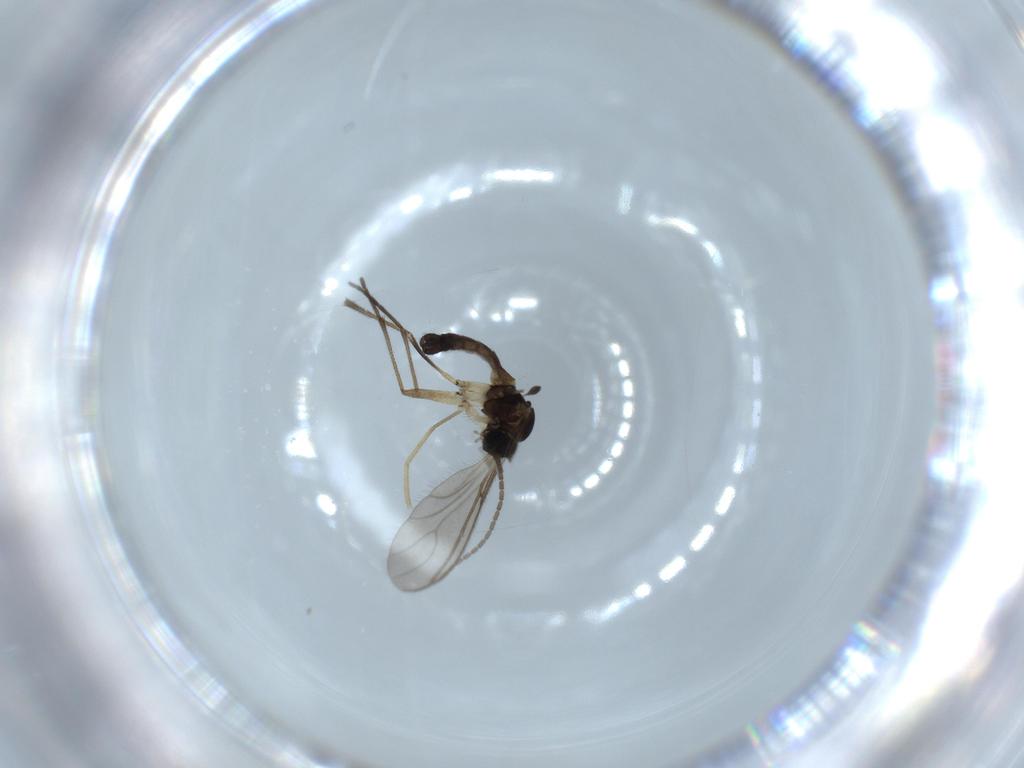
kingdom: Animalia
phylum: Arthropoda
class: Insecta
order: Diptera
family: Sciaridae
